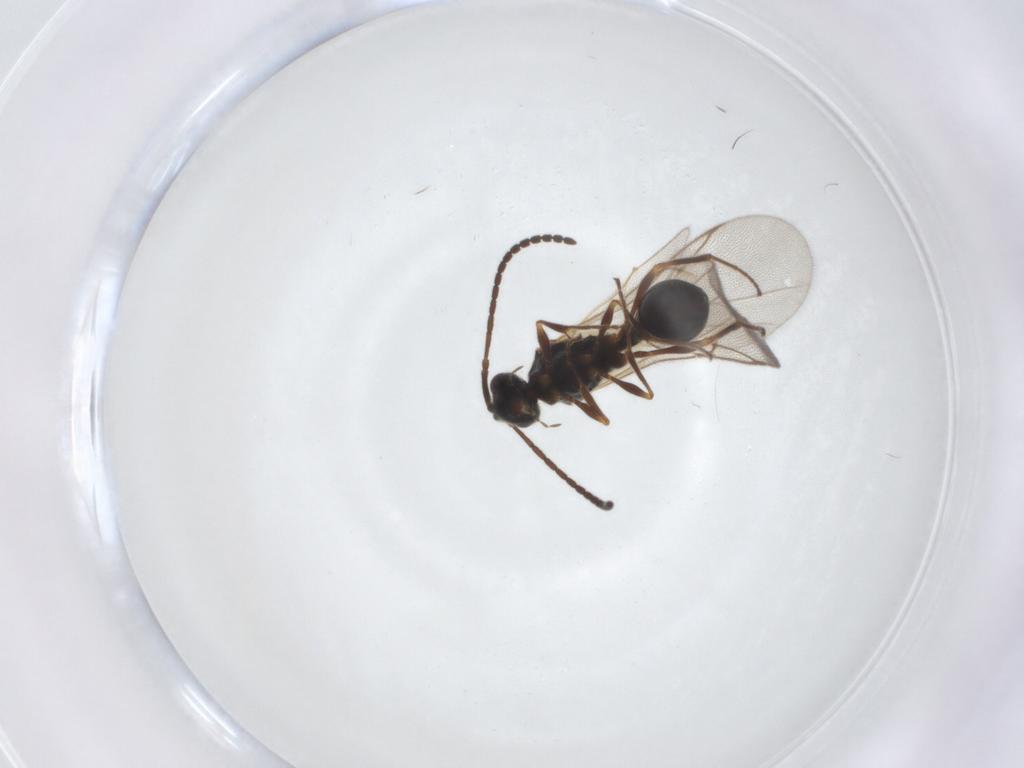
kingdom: Animalia
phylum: Arthropoda
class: Insecta
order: Hymenoptera
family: Diapriidae
